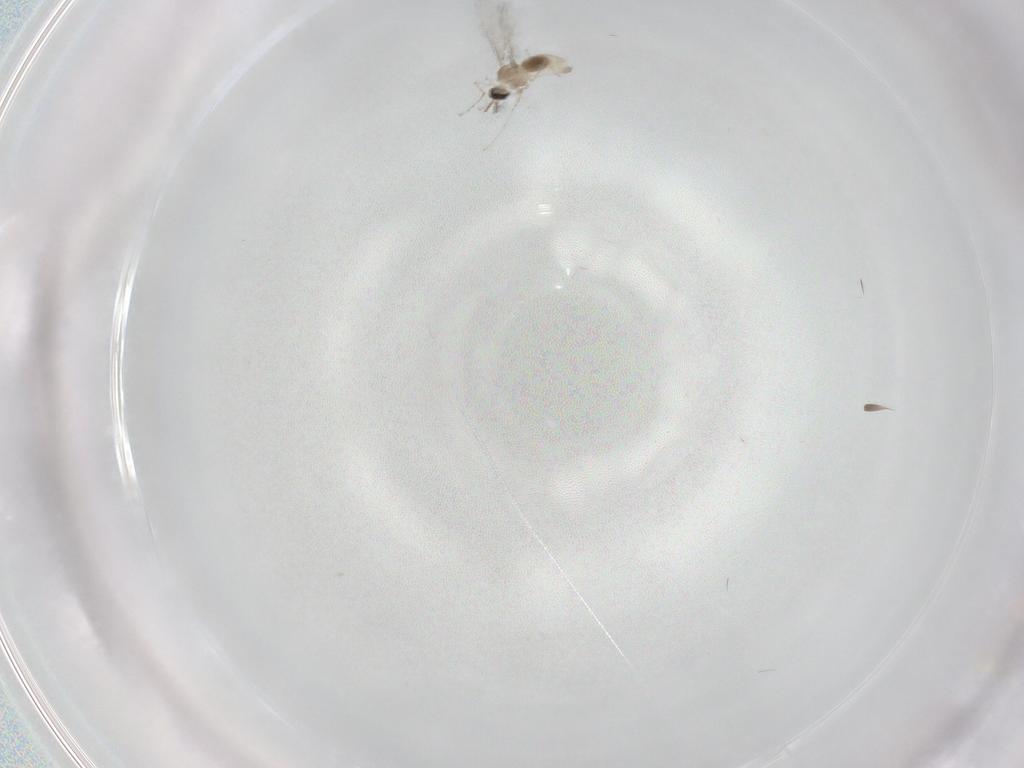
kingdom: Animalia
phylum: Arthropoda
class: Insecta
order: Diptera
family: Cecidomyiidae
